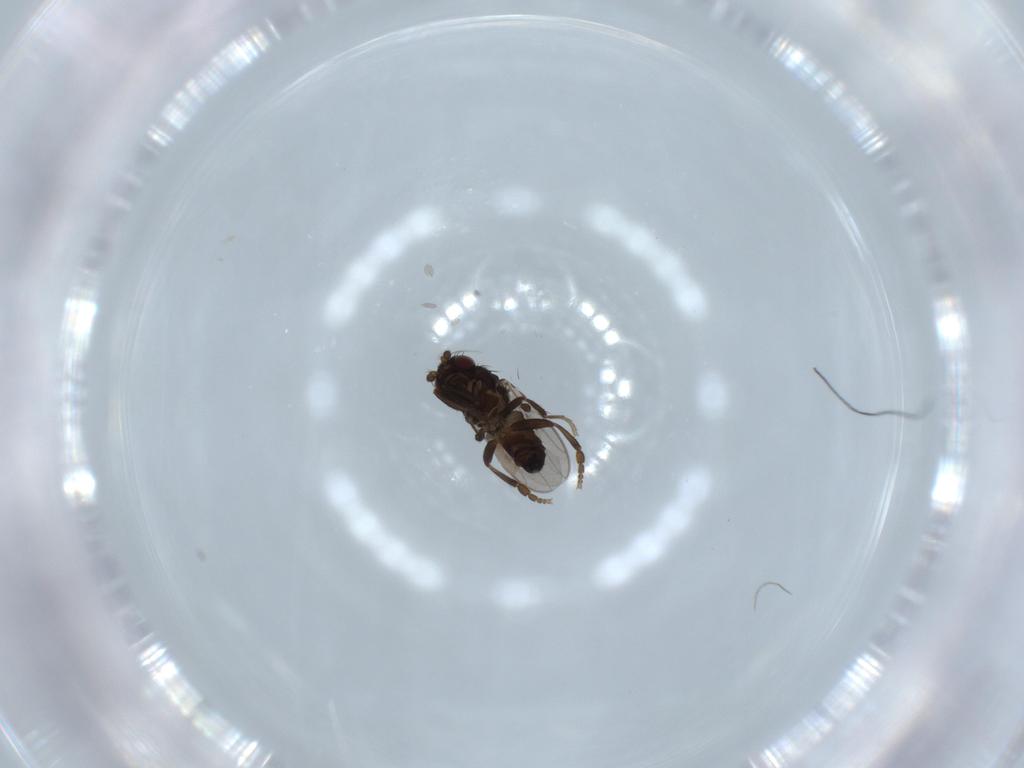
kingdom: Animalia
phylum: Arthropoda
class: Insecta
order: Diptera
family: Sphaeroceridae
